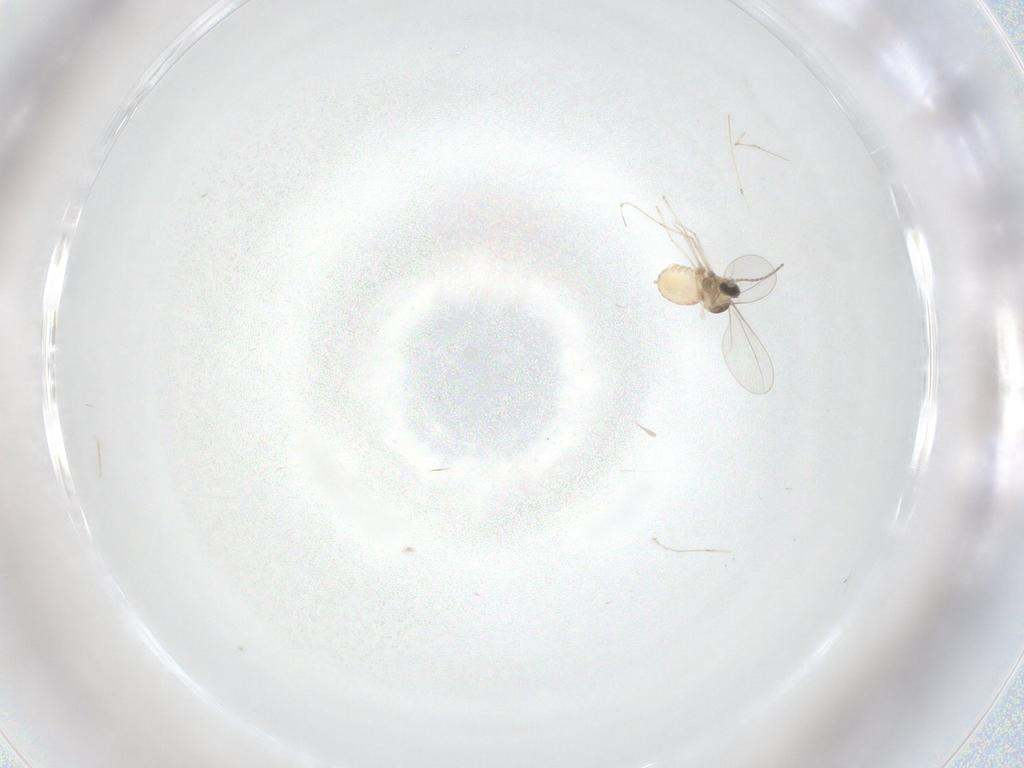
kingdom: Animalia
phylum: Arthropoda
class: Insecta
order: Diptera
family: Cecidomyiidae
